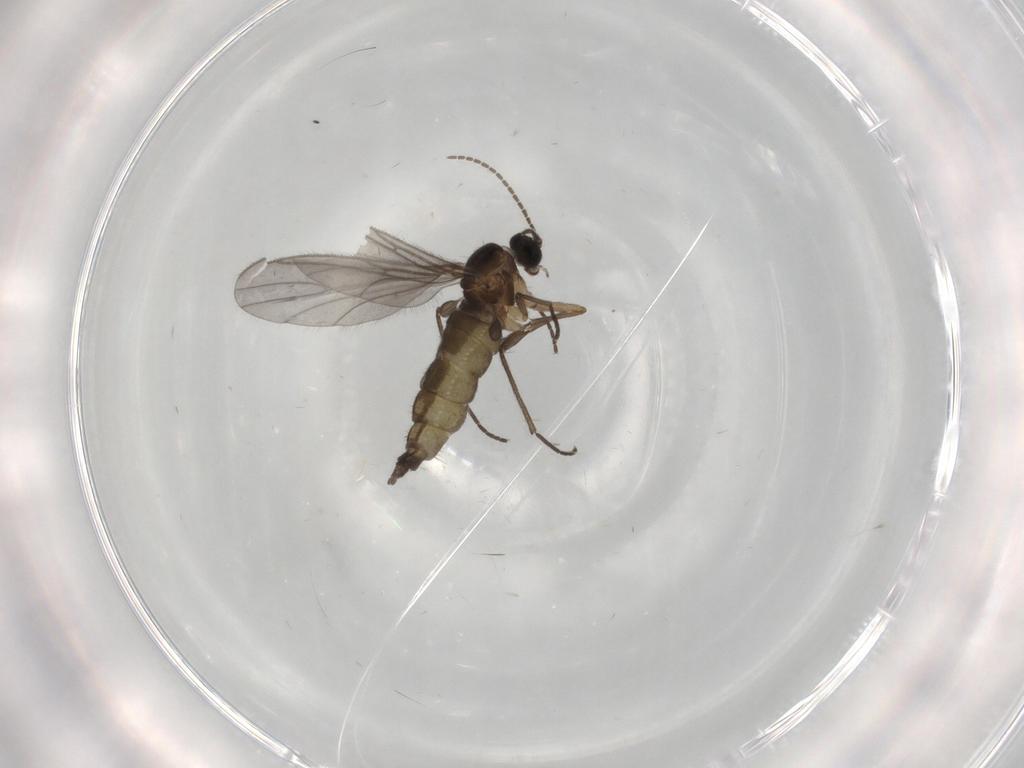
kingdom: Animalia
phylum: Arthropoda
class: Insecta
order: Diptera
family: Sciaridae
